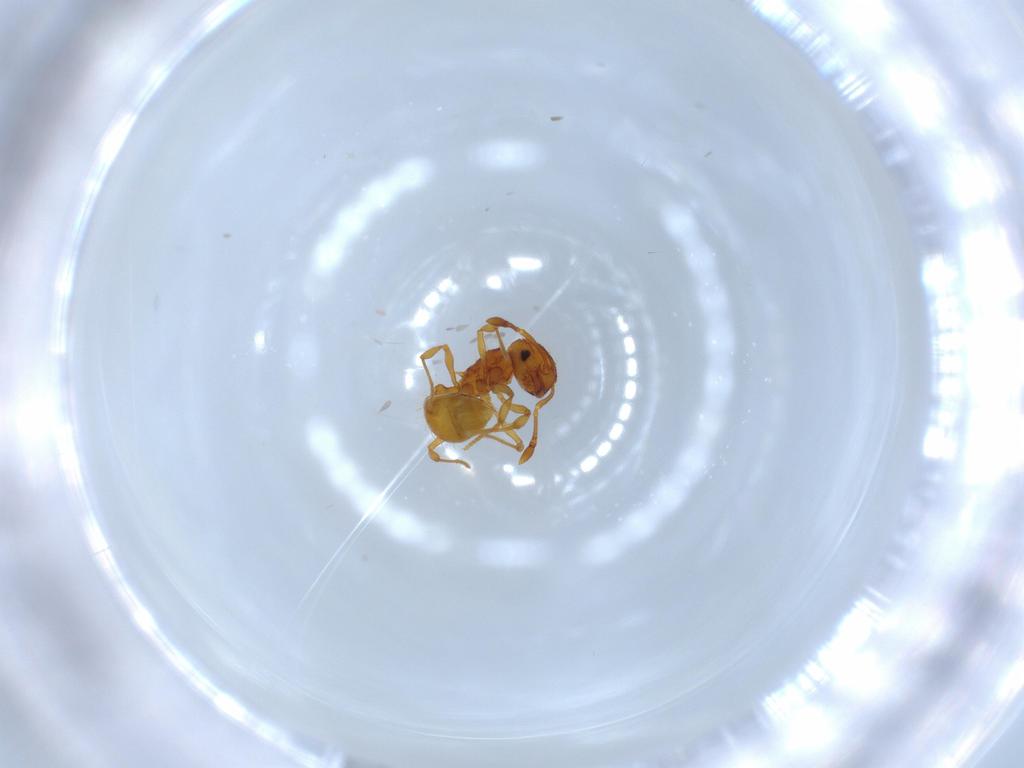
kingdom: Animalia
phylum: Arthropoda
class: Insecta
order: Hymenoptera
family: Formicidae
